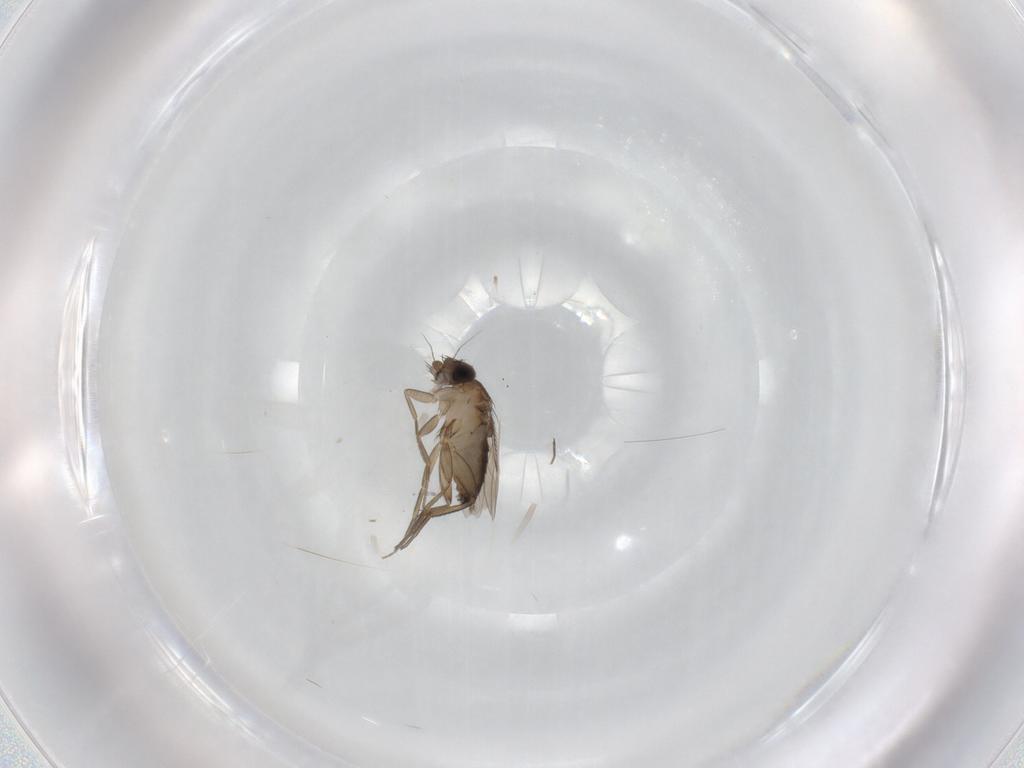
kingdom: Animalia
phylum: Arthropoda
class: Insecta
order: Diptera
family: Phoridae
